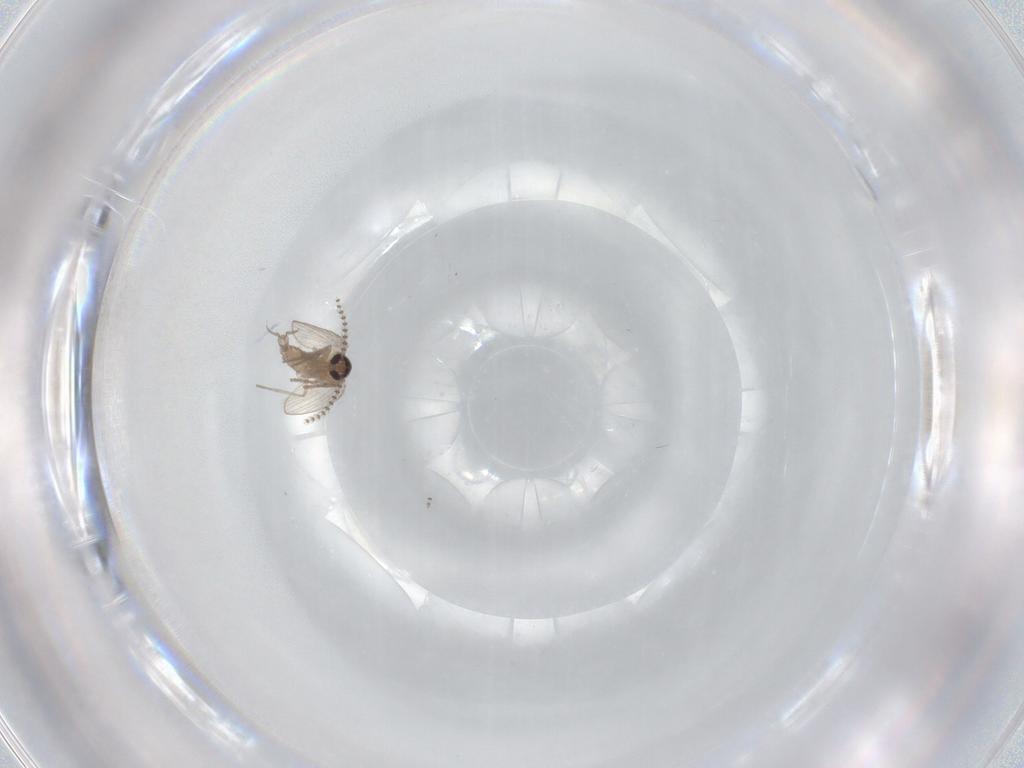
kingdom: Animalia
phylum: Arthropoda
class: Insecta
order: Diptera
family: Psychodidae
